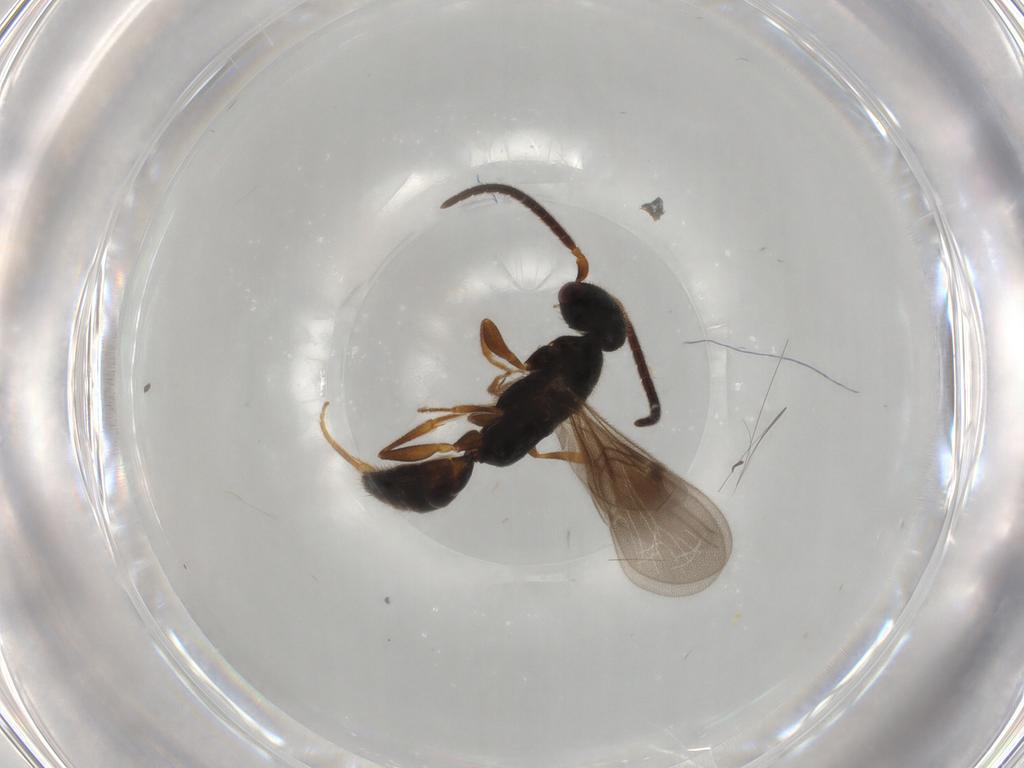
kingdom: Animalia
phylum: Arthropoda
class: Insecta
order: Hymenoptera
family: Bethylidae
